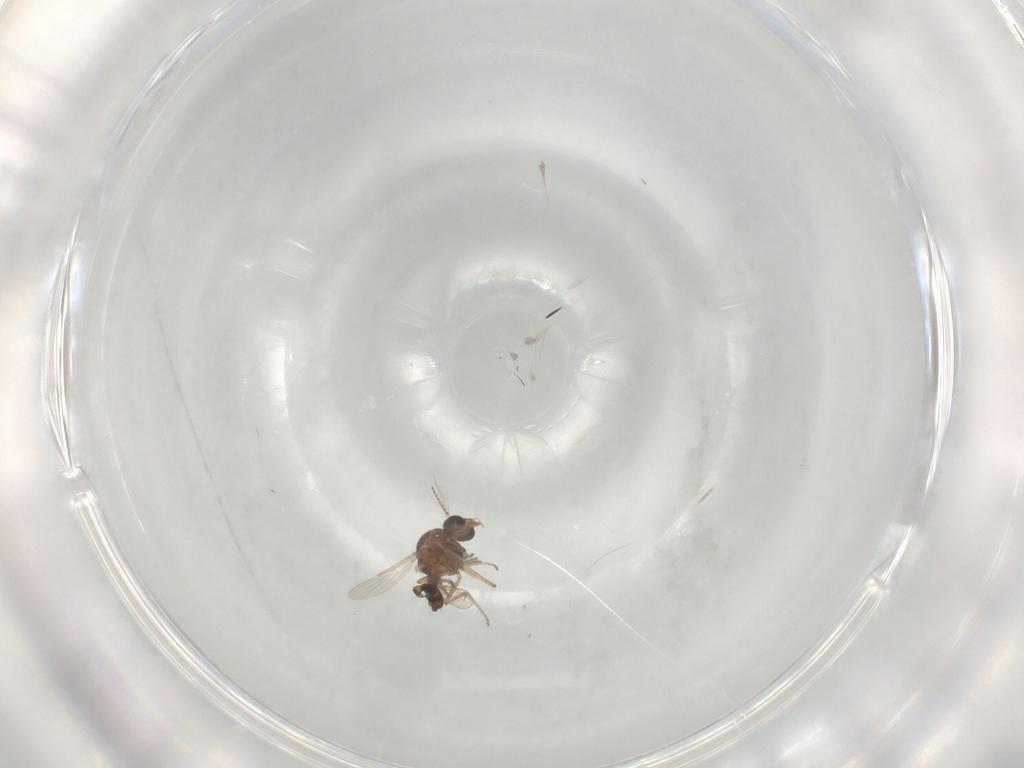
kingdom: Animalia
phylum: Arthropoda
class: Insecta
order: Diptera
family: Ceratopogonidae
